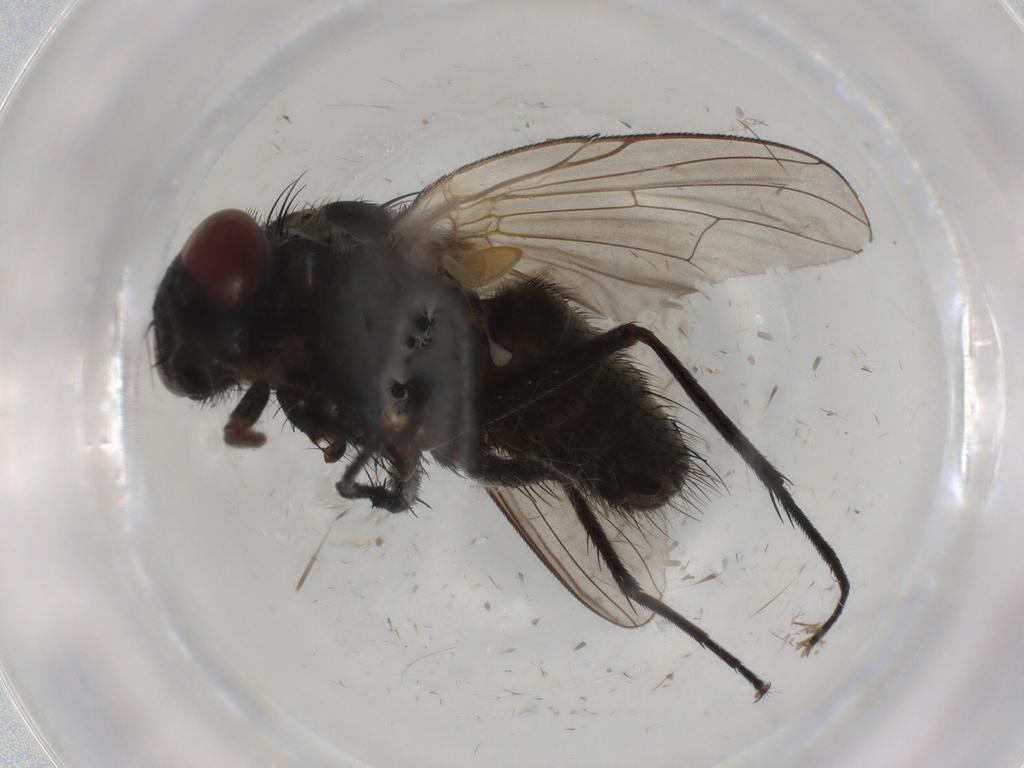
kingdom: Animalia
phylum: Arthropoda
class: Insecta
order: Diptera
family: Muscidae
